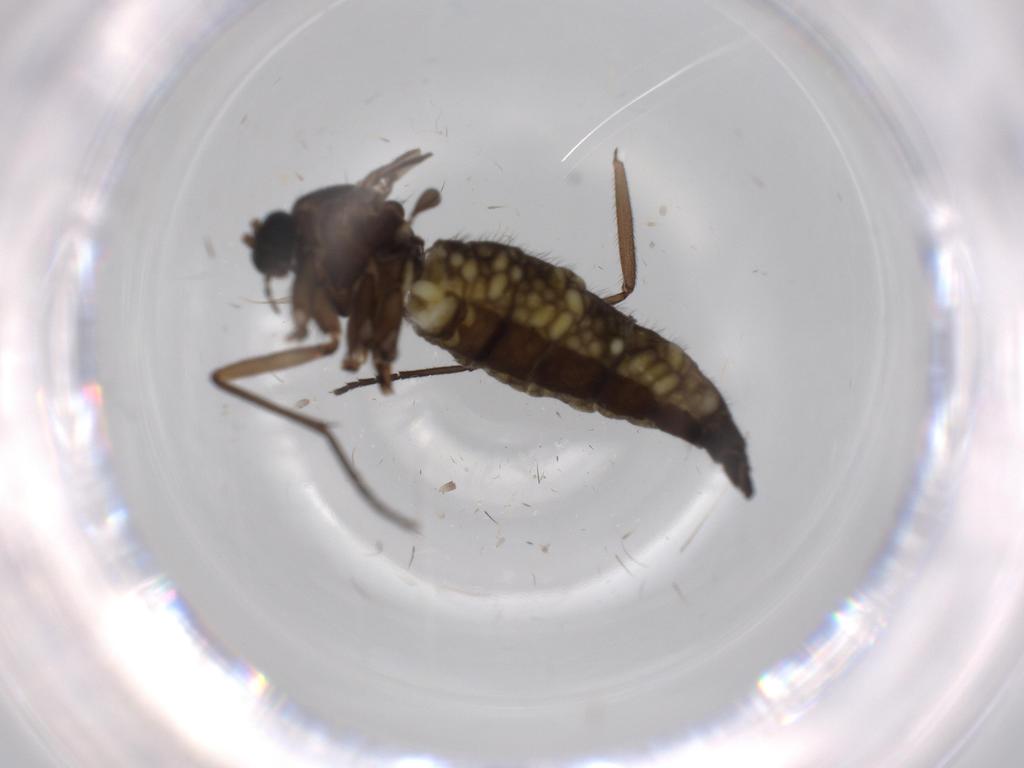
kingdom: Animalia
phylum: Arthropoda
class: Insecta
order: Diptera
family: Sciaridae
